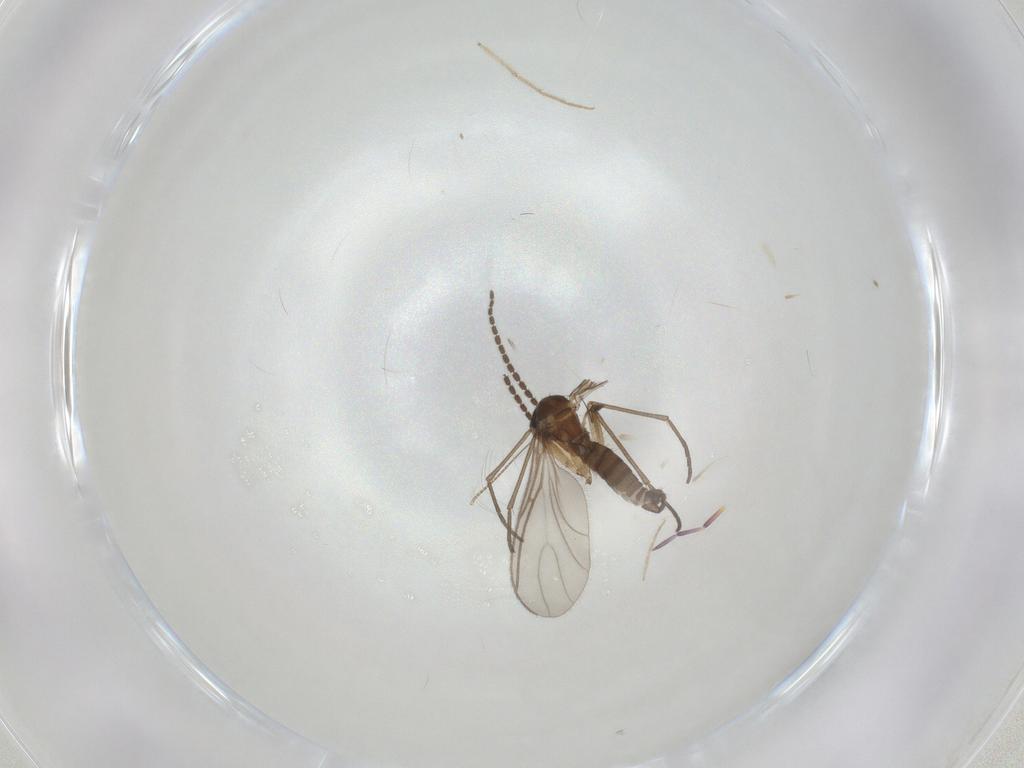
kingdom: Animalia
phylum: Arthropoda
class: Insecta
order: Diptera
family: Sciaridae
